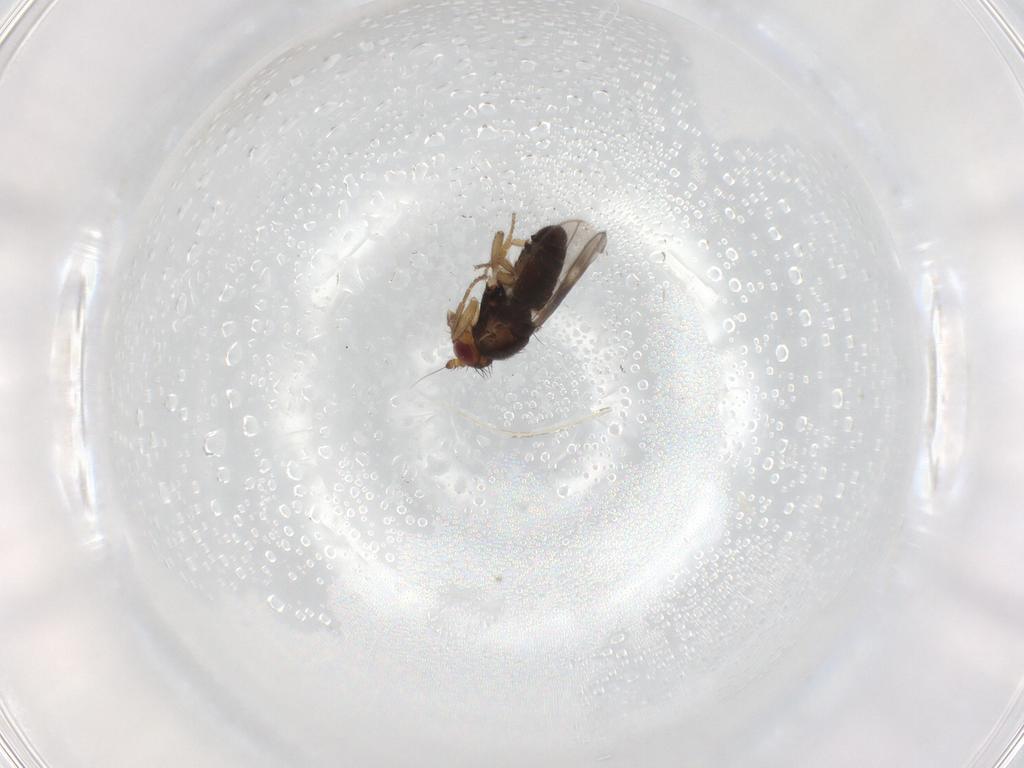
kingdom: Animalia
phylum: Arthropoda
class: Insecta
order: Diptera
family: Sphaeroceridae
